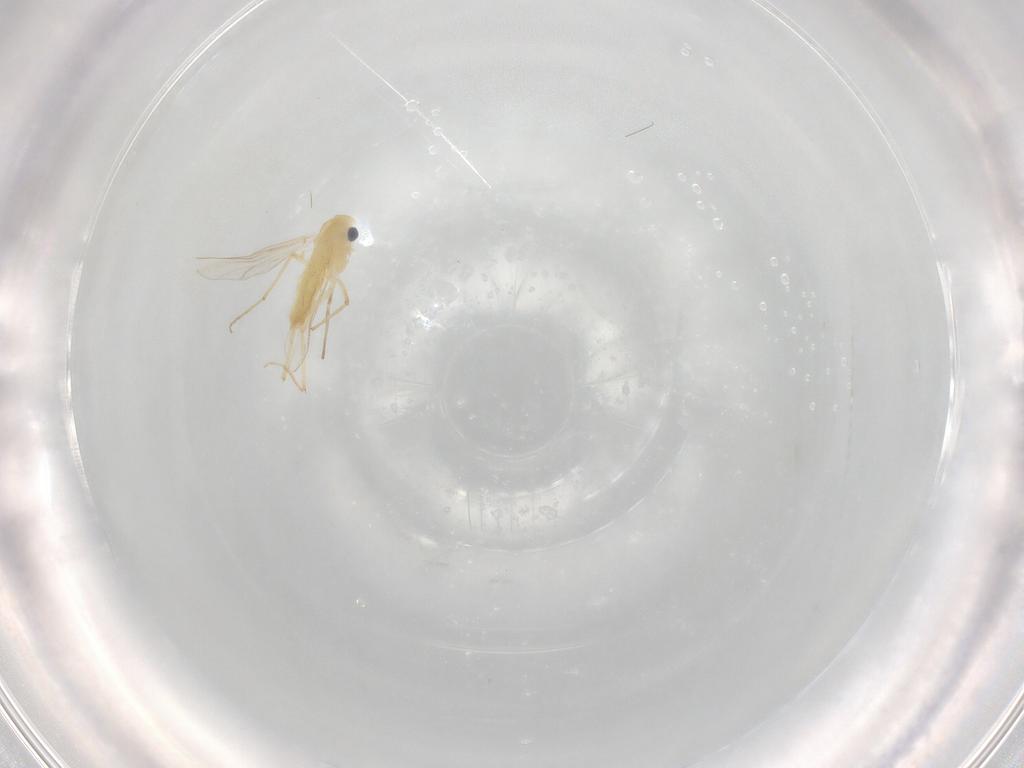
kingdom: Animalia
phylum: Arthropoda
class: Insecta
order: Diptera
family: Chironomidae
